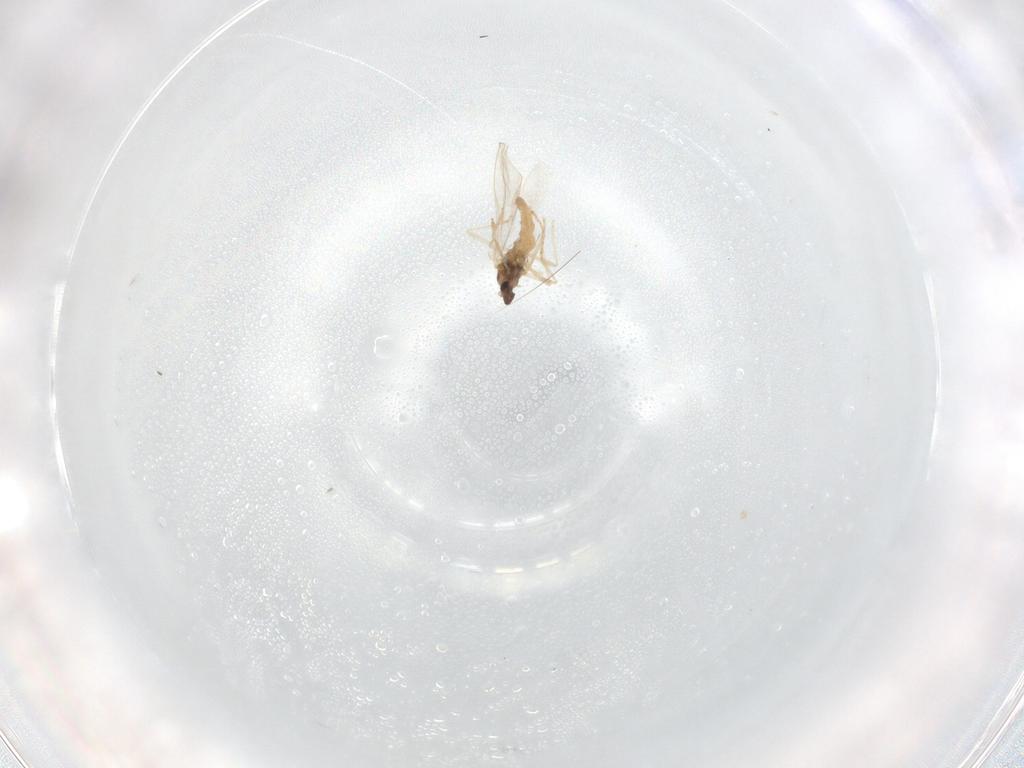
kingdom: Animalia
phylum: Arthropoda
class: Insecta
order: Diptera
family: Cecidomyiidae
